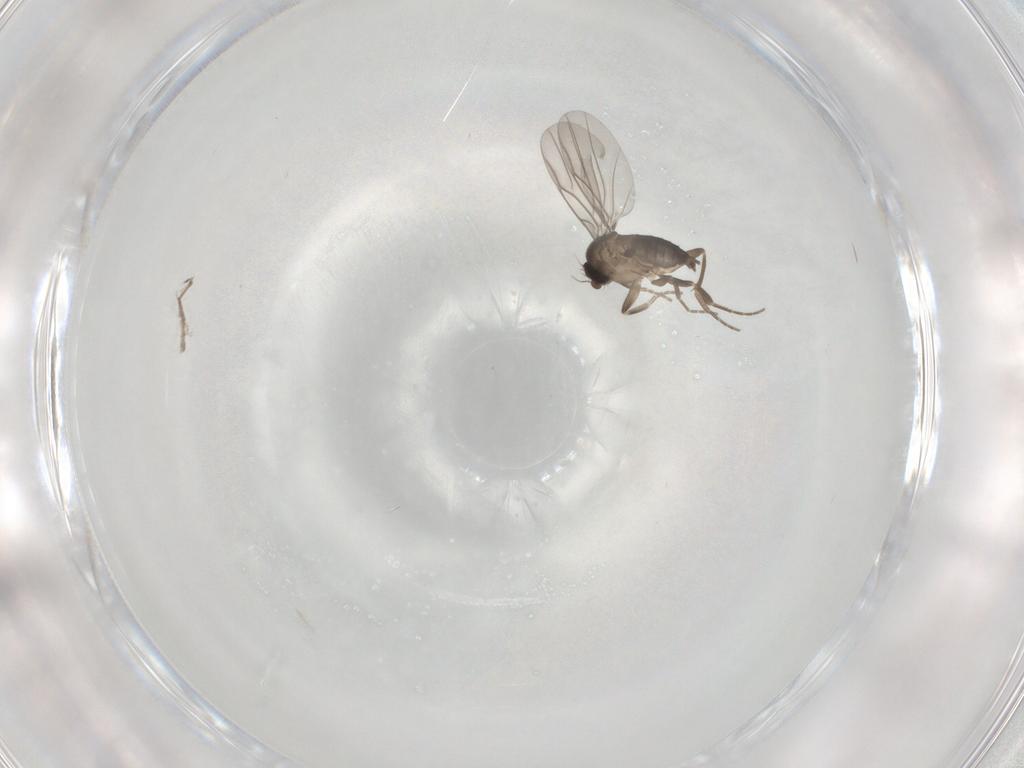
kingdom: Animalia
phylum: Arthropoda
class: Insecta
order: Diptera
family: Phoridae
